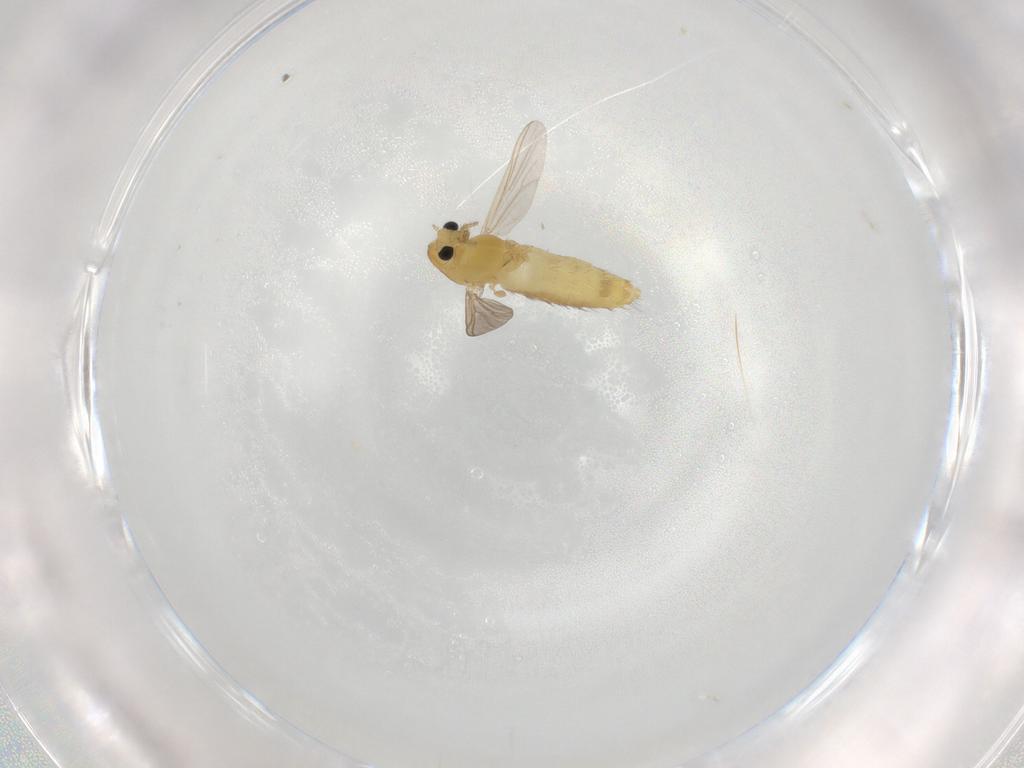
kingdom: Animalia
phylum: Arthropoda
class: Insecta
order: Diptera
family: Chironomidae
